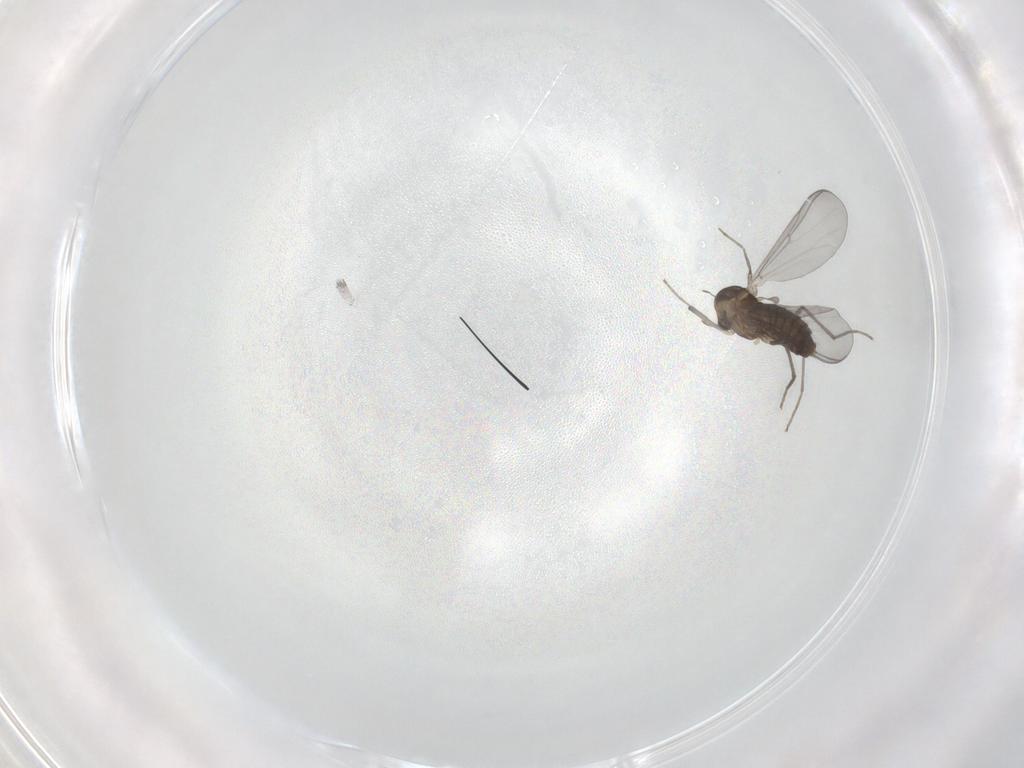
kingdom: Animalia
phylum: Arthropoda
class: Insecta
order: Diptera
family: Chironomidae
